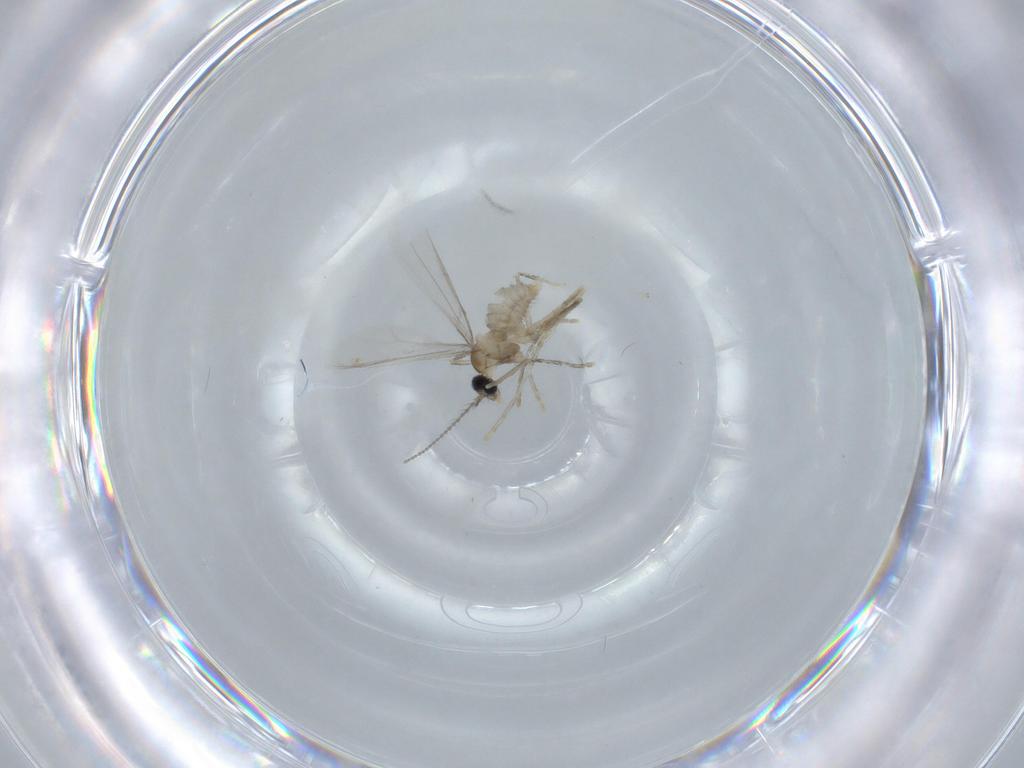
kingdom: Animalia
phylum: Arthropoda
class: Insecta
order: Diptera
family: Cecidomyiidae
